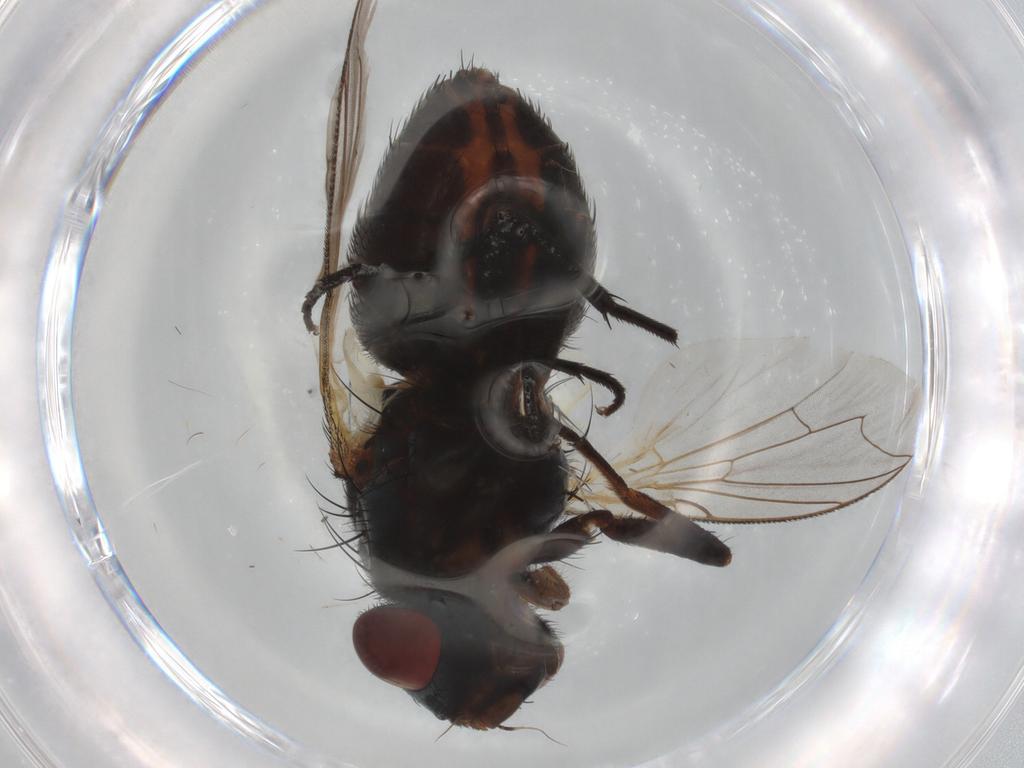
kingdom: Animalia
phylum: Arthropoda
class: Insecta
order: Diptera
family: Sarcophagidae
